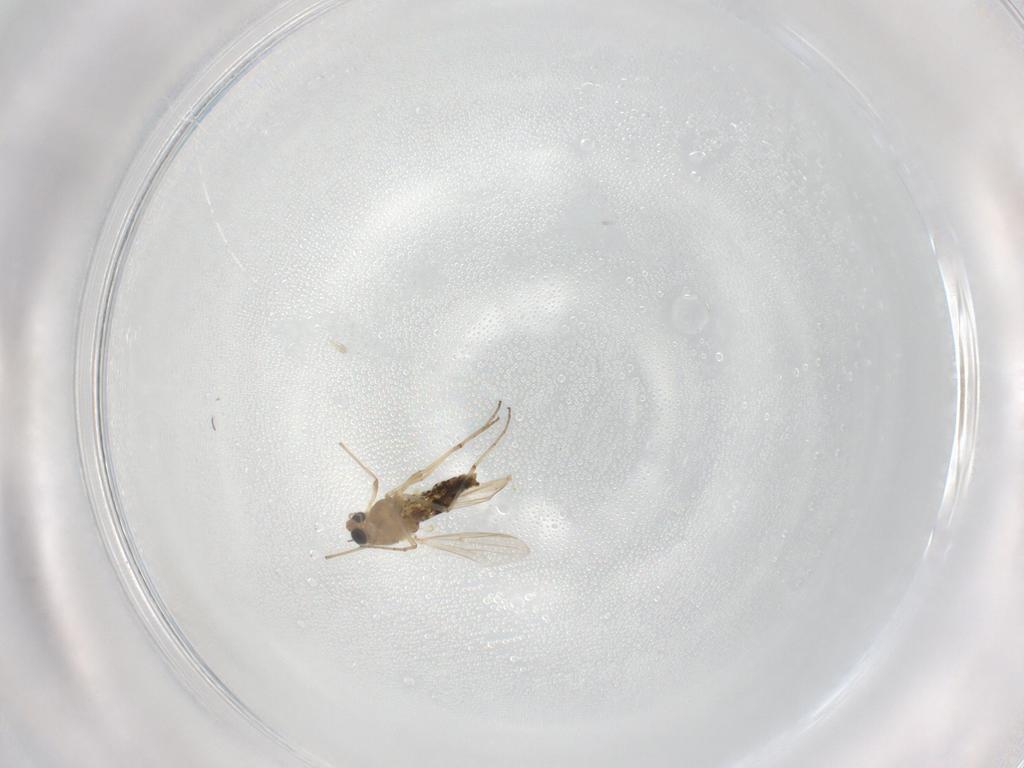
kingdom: Animalia
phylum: Arthropoda
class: Insecta
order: Diptera
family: Chironomidae
